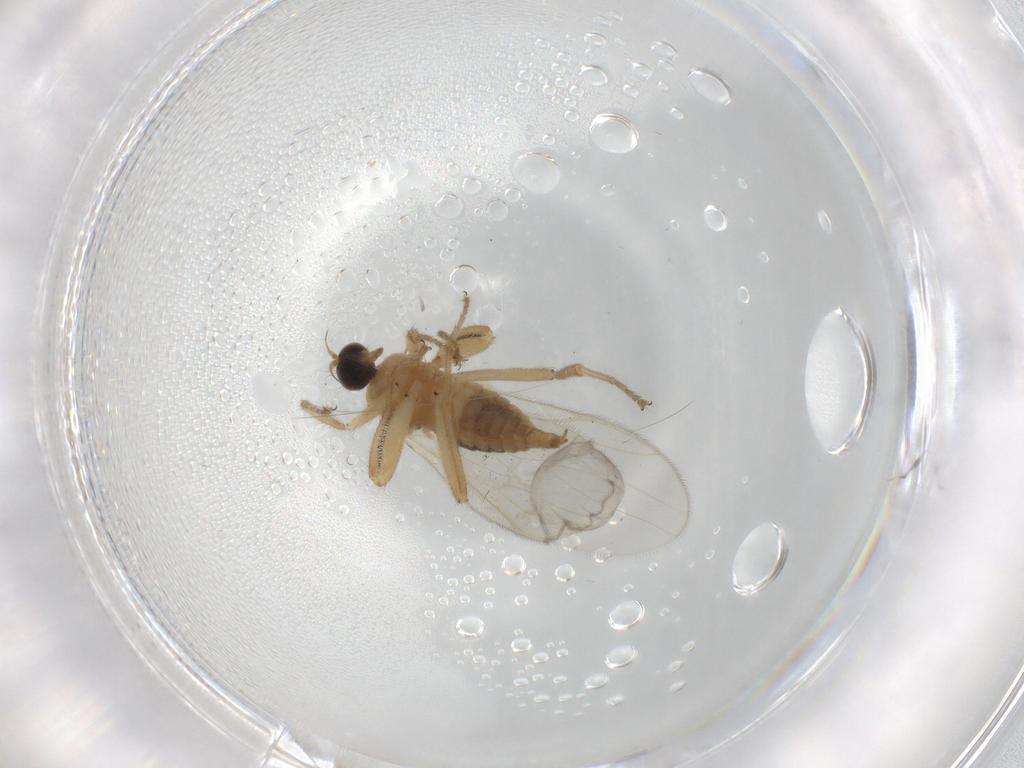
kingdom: Animalia
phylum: Arthropoda
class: Insecta
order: Diptera
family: Hybotidae
